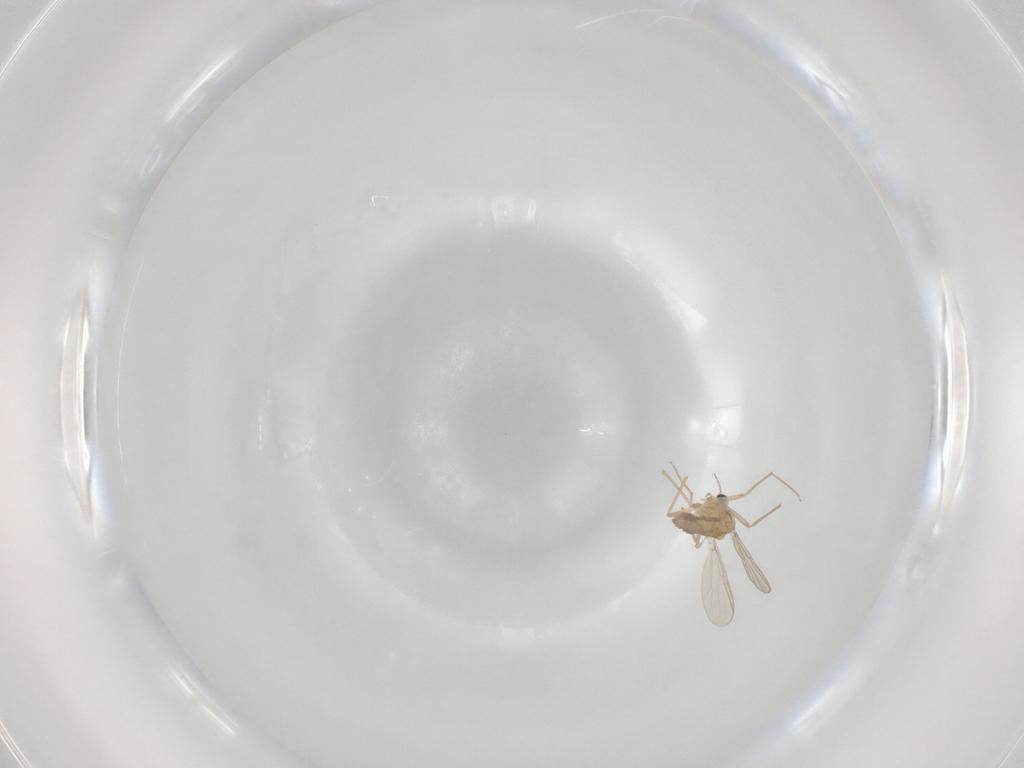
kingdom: Animalia
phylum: Arthropoda
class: Insecta
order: Diptera
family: Chironomidae
